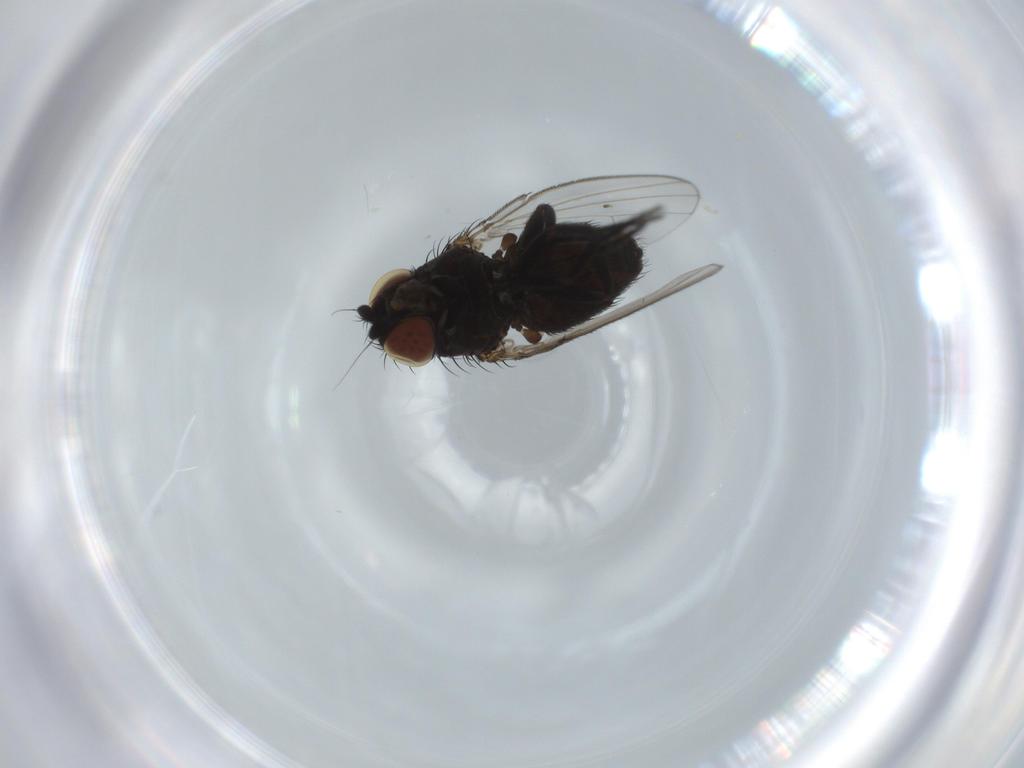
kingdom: Animalia
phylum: Arthropoda
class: Insecta
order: Diptera
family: Milichiidae
